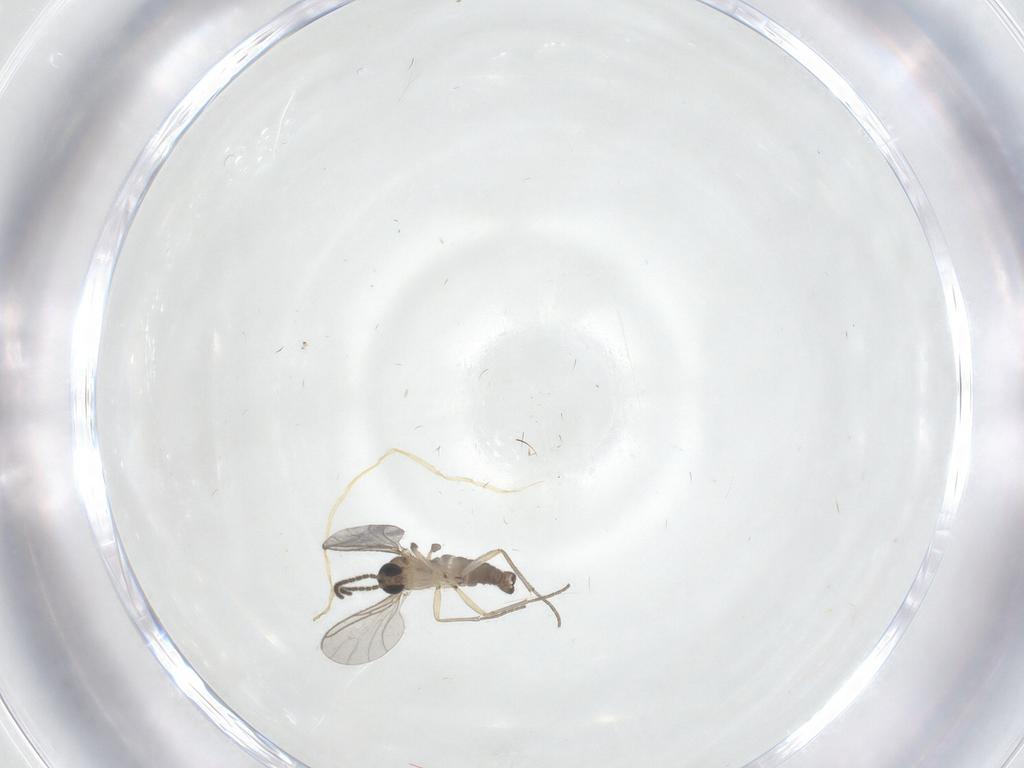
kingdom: Animalia
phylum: Arthropoda
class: Insecta
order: Diptera
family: Sciaridae
